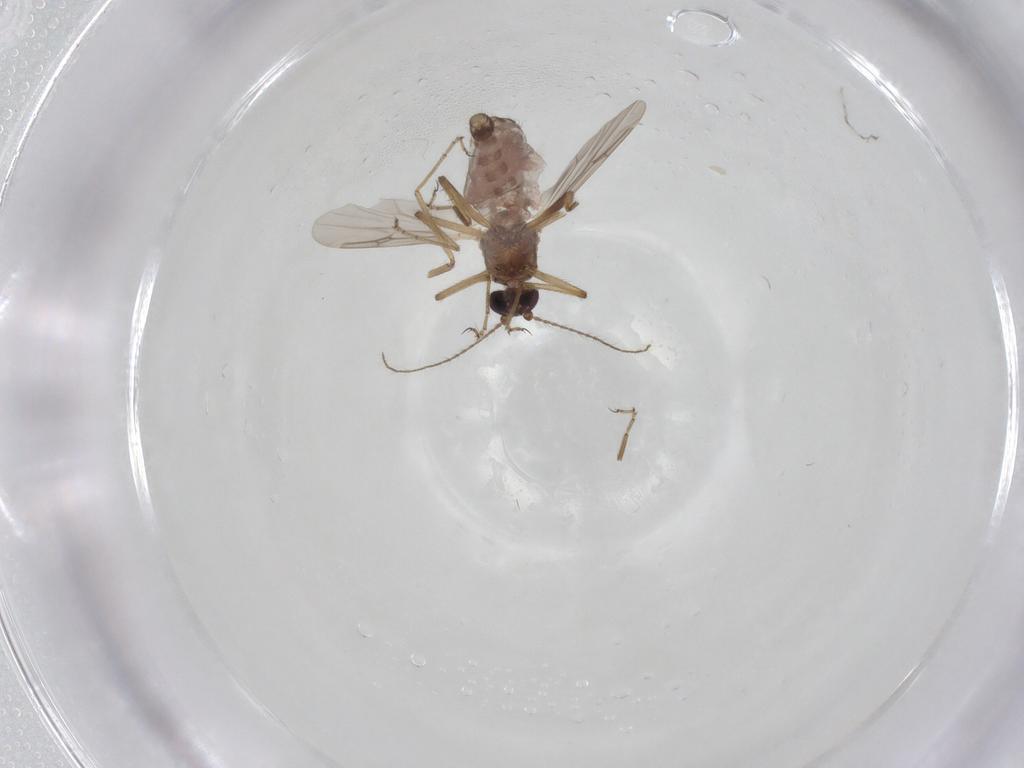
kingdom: Animalia
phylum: Arthropoda
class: Insecta
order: Diptera
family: Ceratopogonidae
